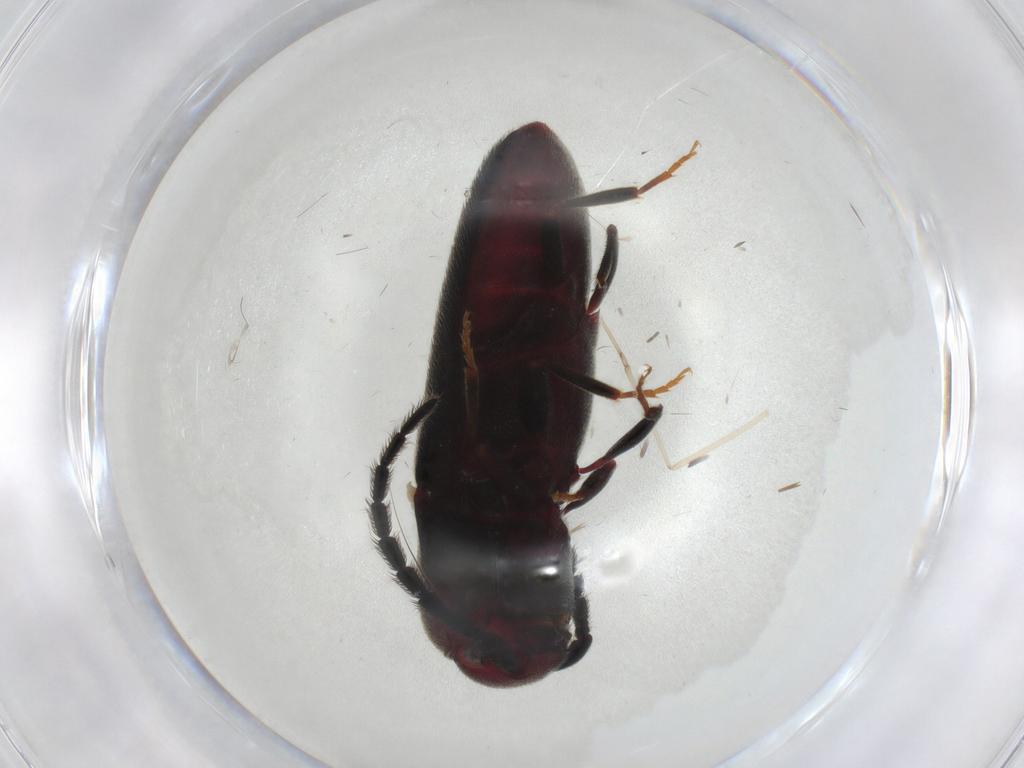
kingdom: Animalia
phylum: Arthropoda
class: Insecta
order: Coleoptera
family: Eucnemidae
